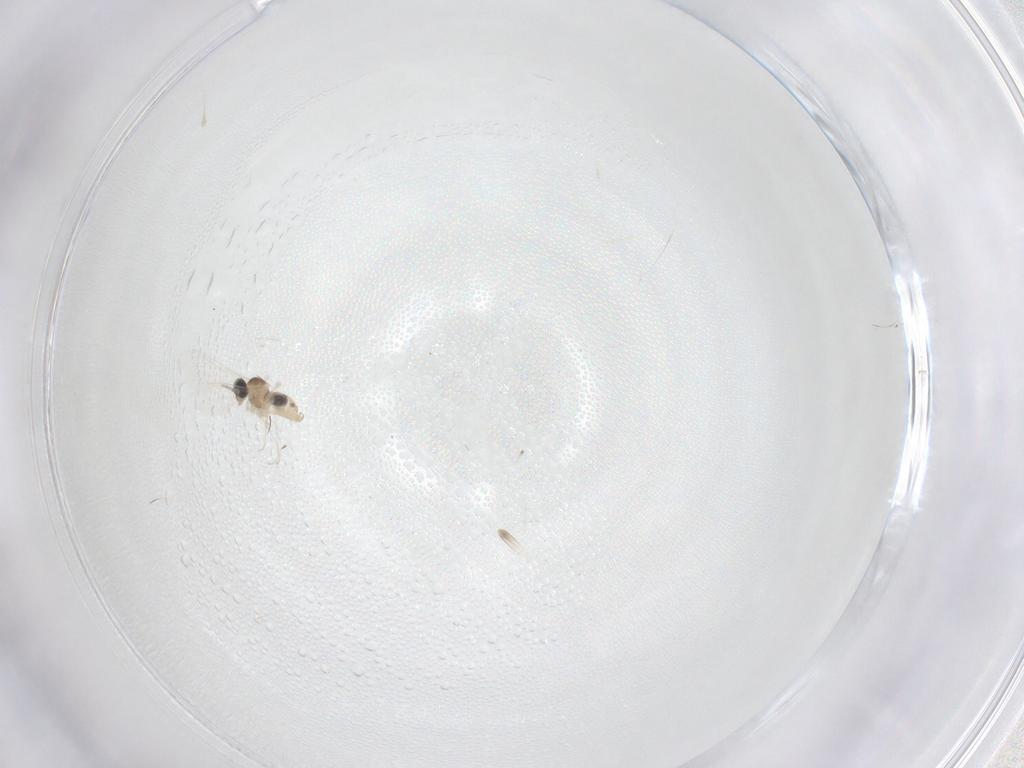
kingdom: Animalia
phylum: Arthropoda
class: Insecta
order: Diptera
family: Cecidomyiidae
